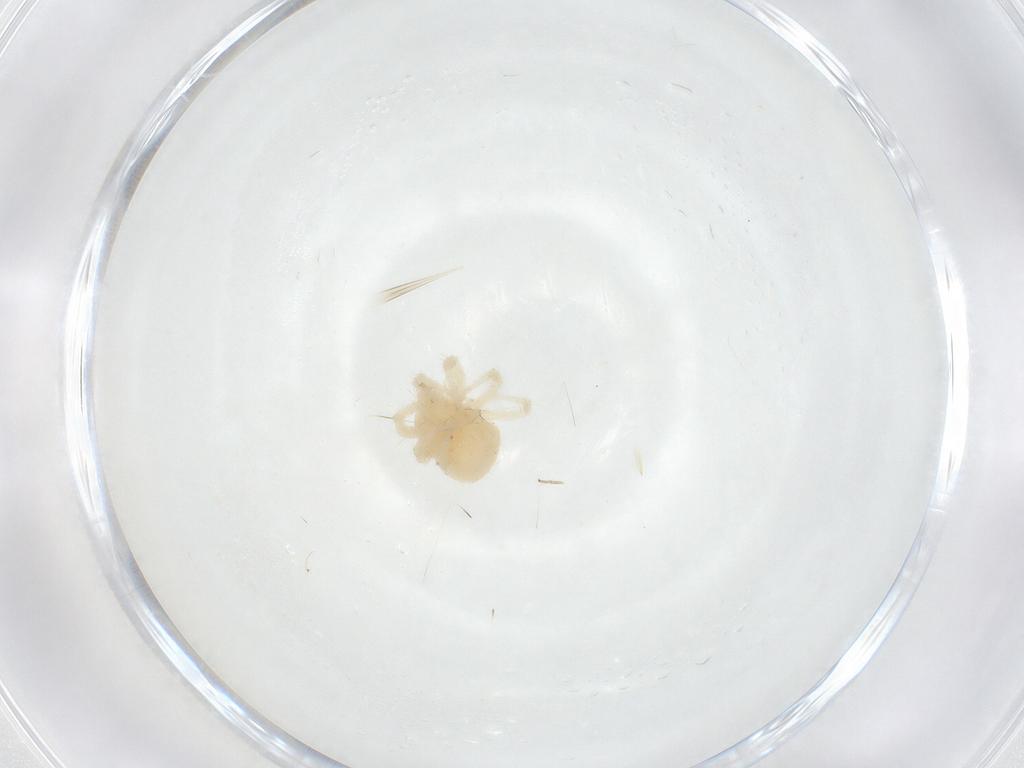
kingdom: Animalia
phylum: Arthropoda
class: Arachnida
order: Trombidiformes
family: Anystidae
